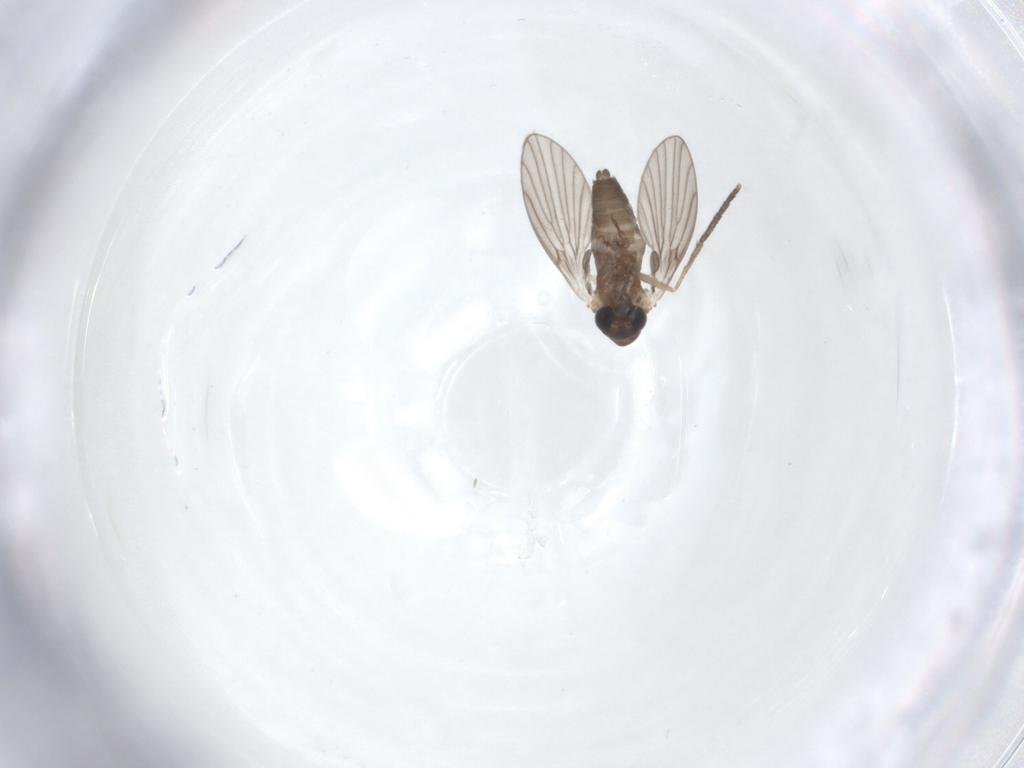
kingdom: Animalia
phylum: Arthropoda
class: Insecta
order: Diptera
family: Psychodidae
